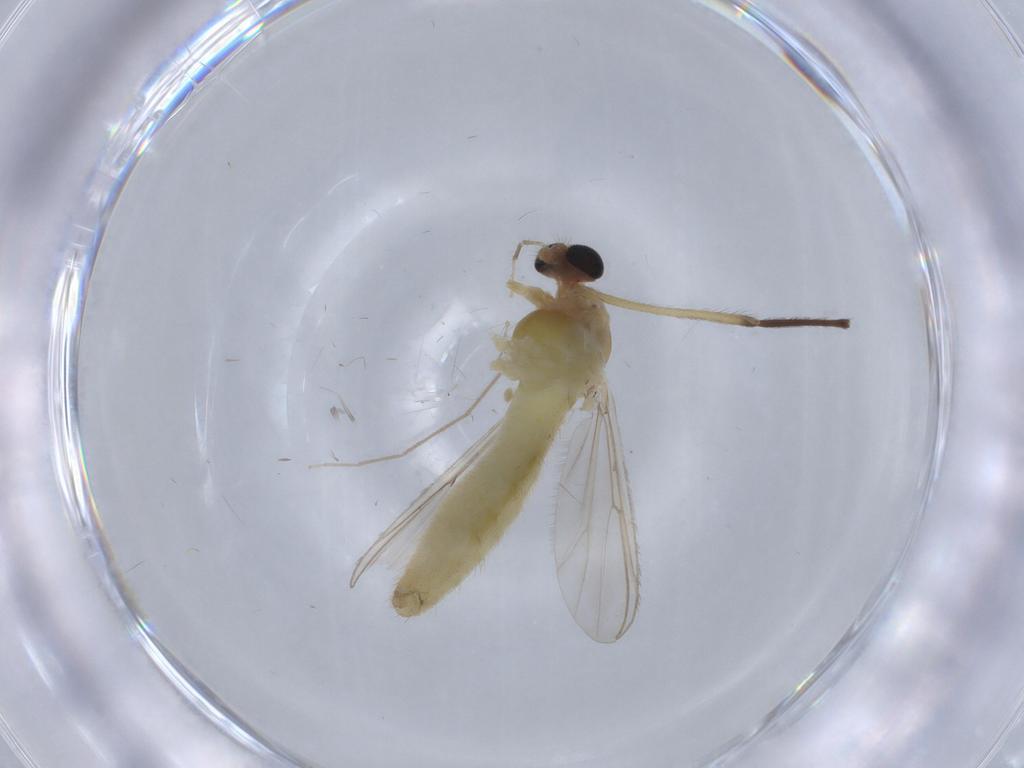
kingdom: Animalia
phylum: Arthropoda
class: Insecta
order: Diptera
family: Chironomidae
